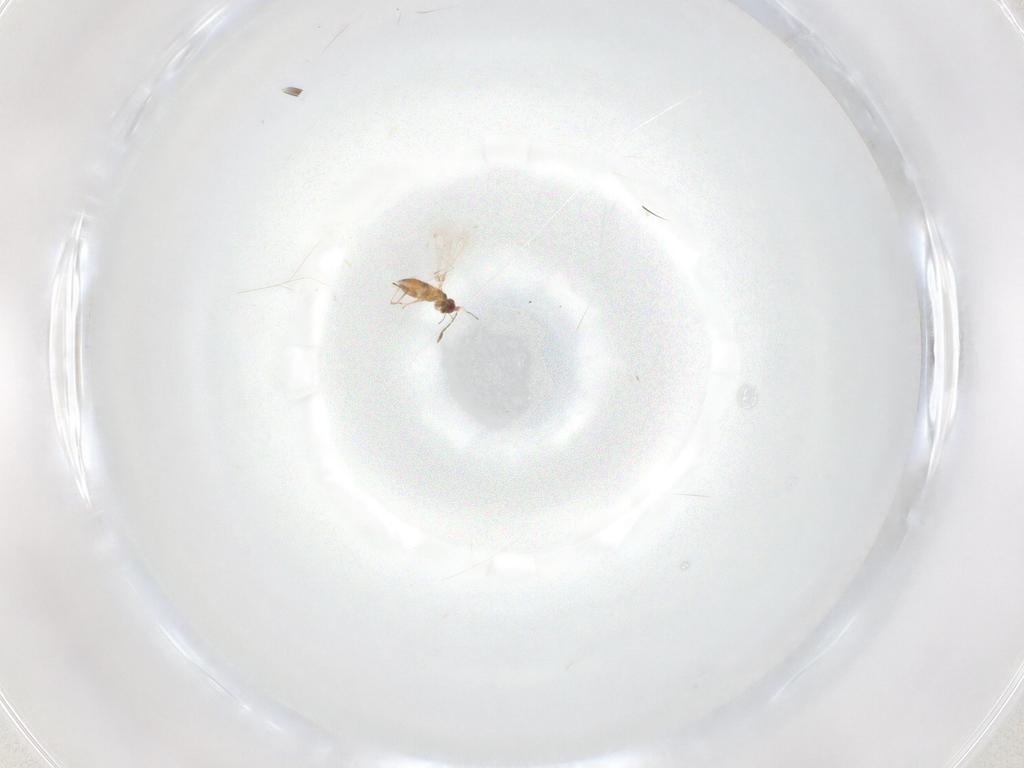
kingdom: Animalia
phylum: Arthropoda
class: Insecta
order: Hymenoptera
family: Mymaridae
